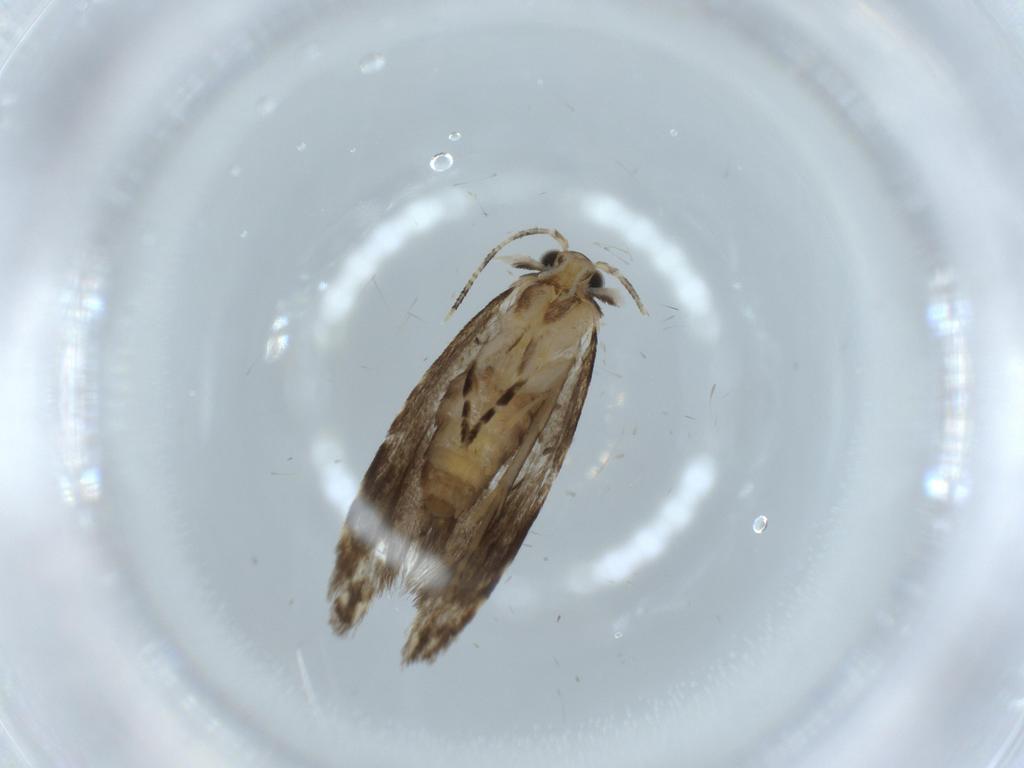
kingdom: Animalia
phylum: Arthropoda
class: Insecta
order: Lepidoptera
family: Tineidae
